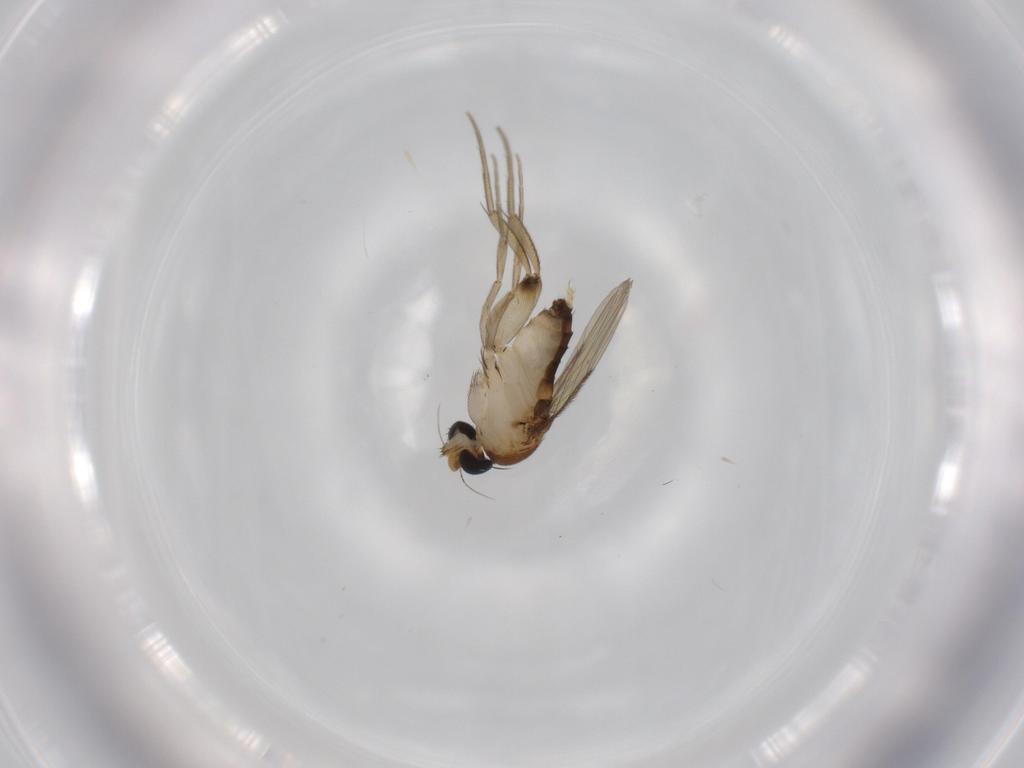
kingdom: Animalia
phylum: Arthropoda
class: Insecta
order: Diptera
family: Phoridae
